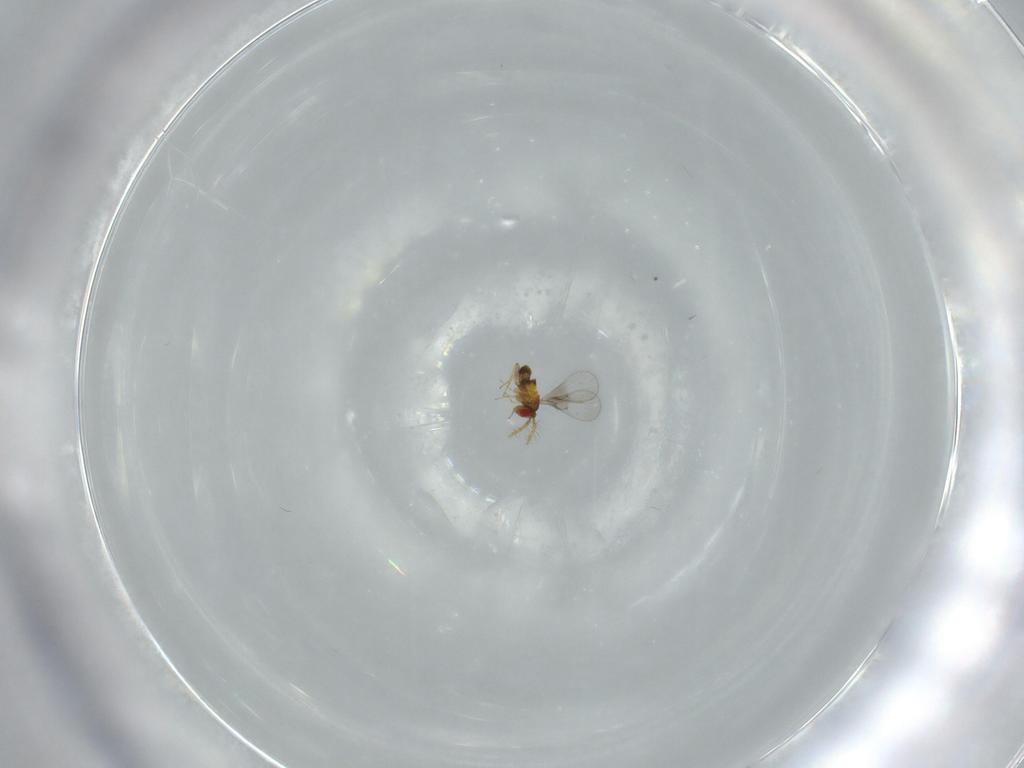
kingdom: Animalia
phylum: Arthropoda
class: Insecta
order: Hymenoptera
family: Trichogrammatidae
